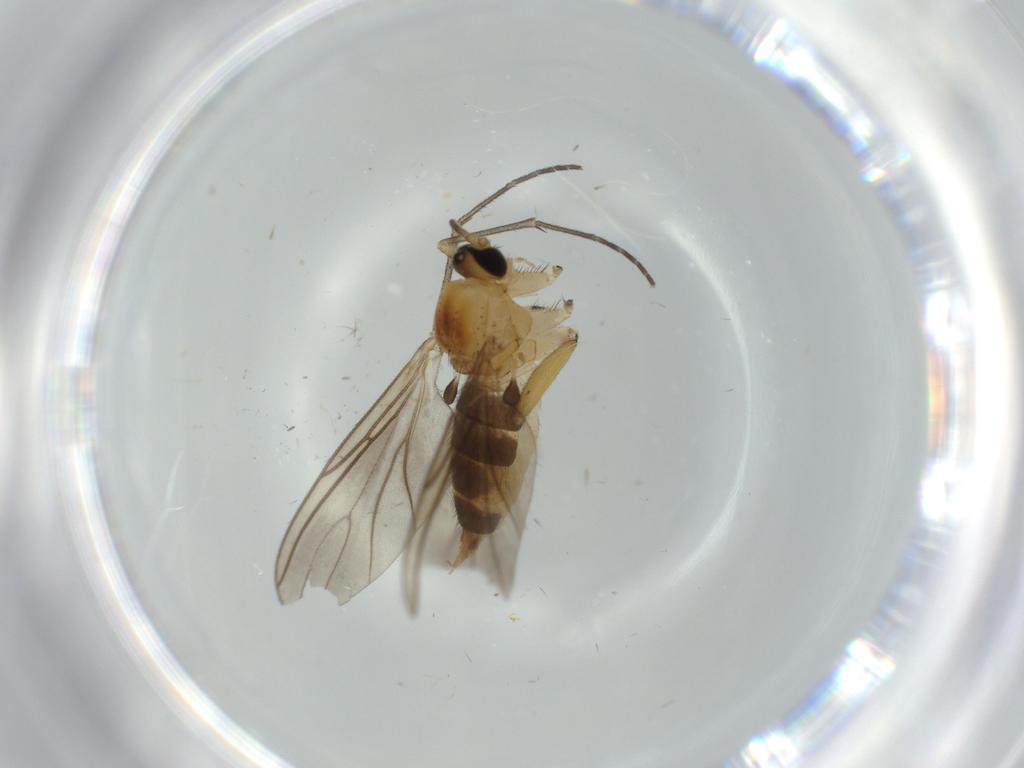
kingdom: Animalia
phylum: Arthropoda
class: Insecta
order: Diptera
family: Sciaridae
